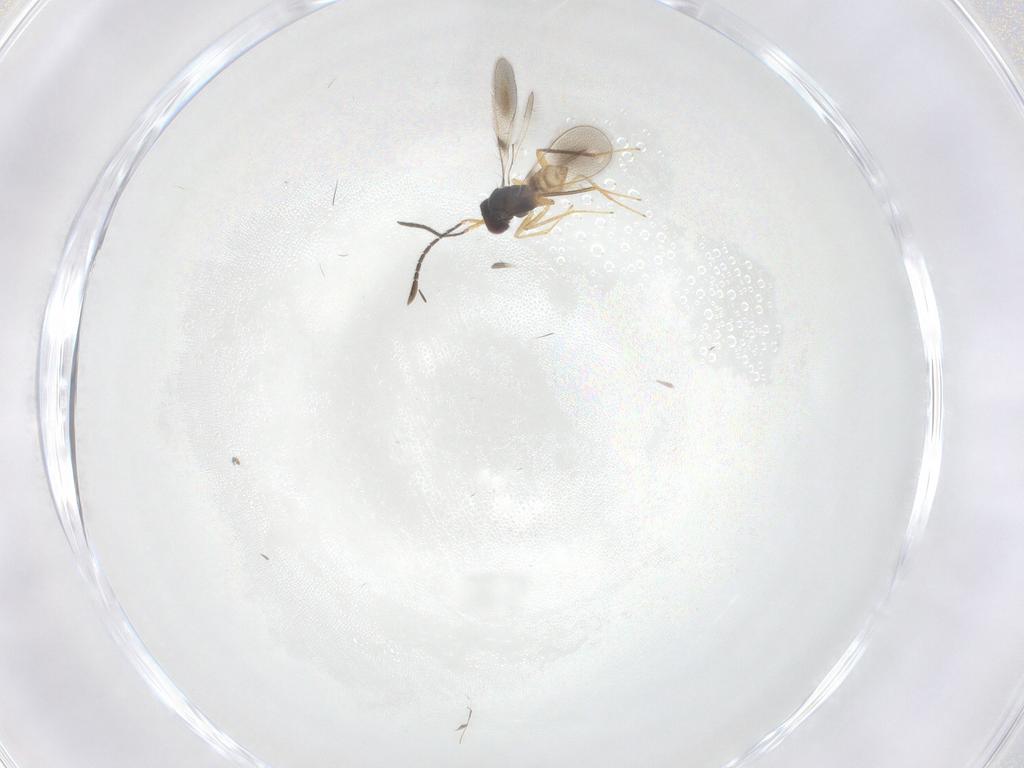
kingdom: Animalia
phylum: Arthropoda
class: Insecta
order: Hymenoptera
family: Mymaridae
